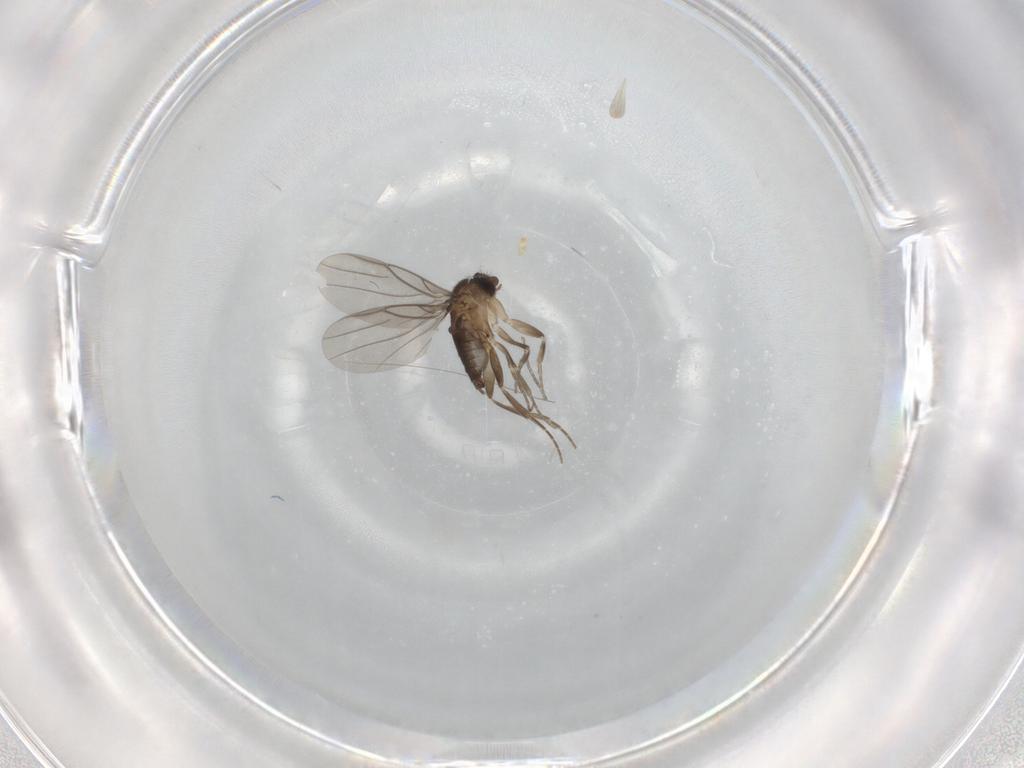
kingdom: Animalia
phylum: Arthropoda
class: Insecta
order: Diptera
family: Phoridae
